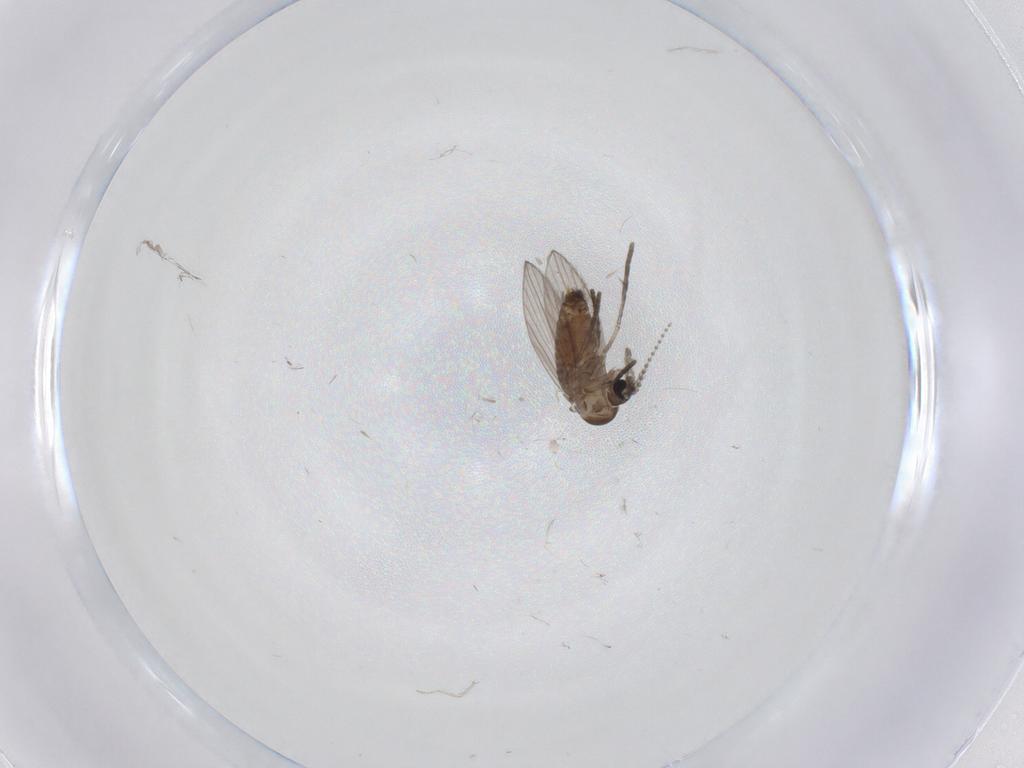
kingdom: Animalia
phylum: Arthropoda
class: Insecta
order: Diptera
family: Psychodidae
